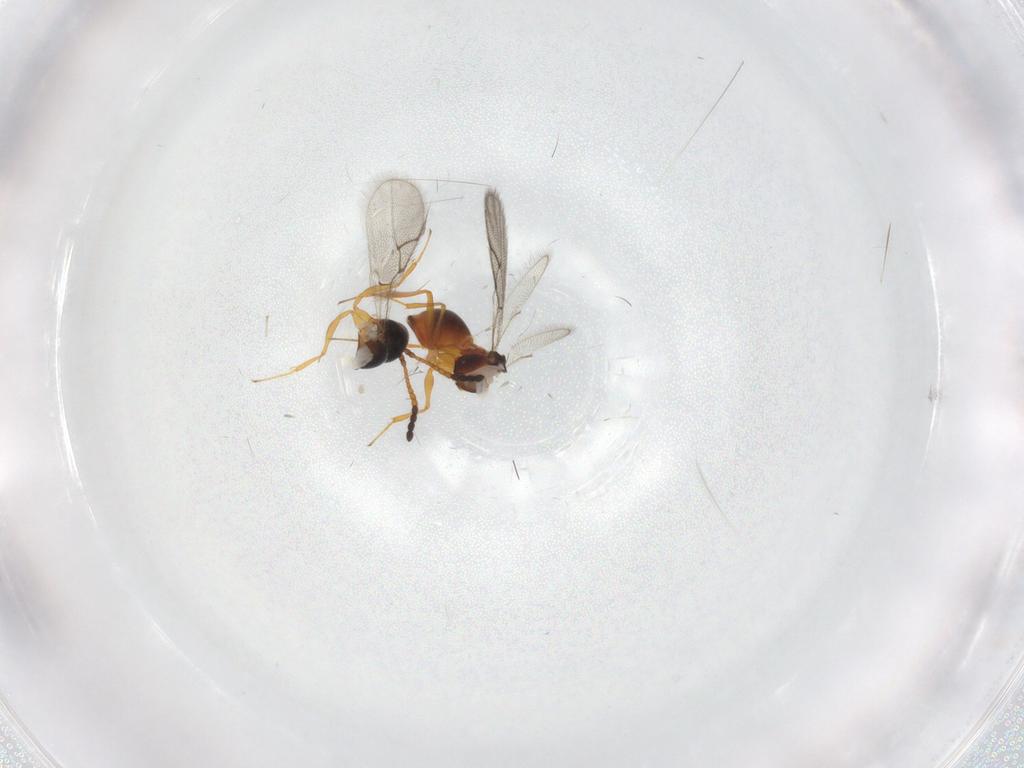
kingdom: Animalia
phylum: Arthropoda
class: Insecta
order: Hymenoptera
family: Figitidae
